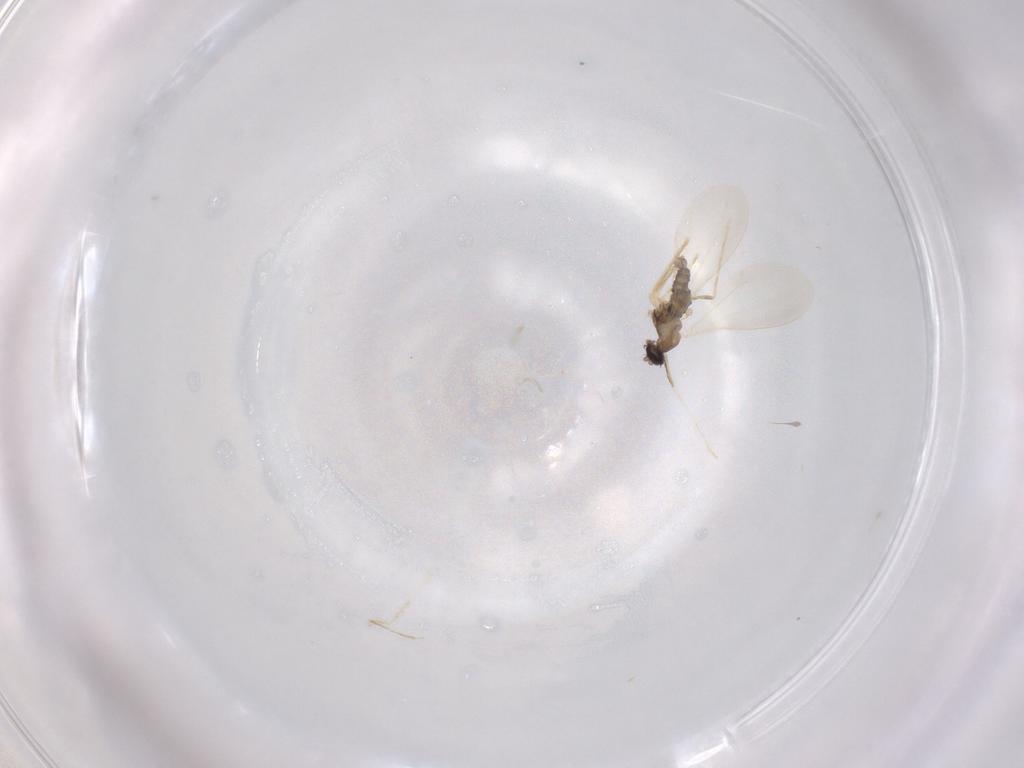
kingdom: Animalia
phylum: Arthropoda
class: Insecta
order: Diptera
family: Cecidomyiidae
